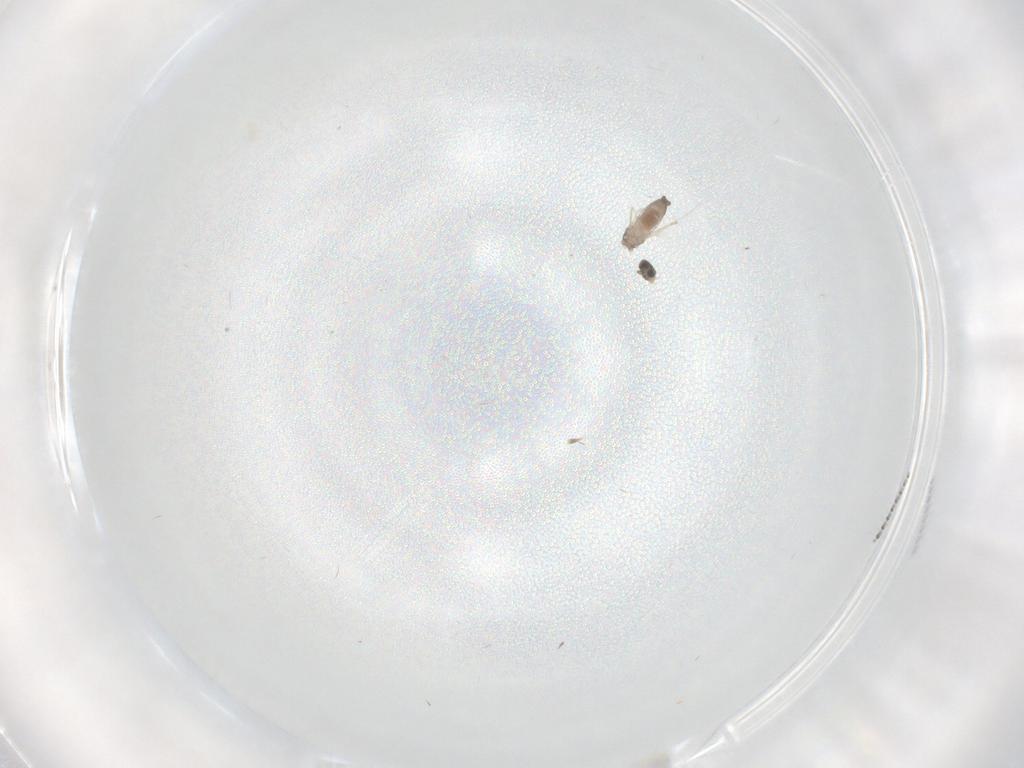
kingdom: Animalia
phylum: Arthropoda
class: Insecta
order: Diptera
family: Cecidomyiidae
